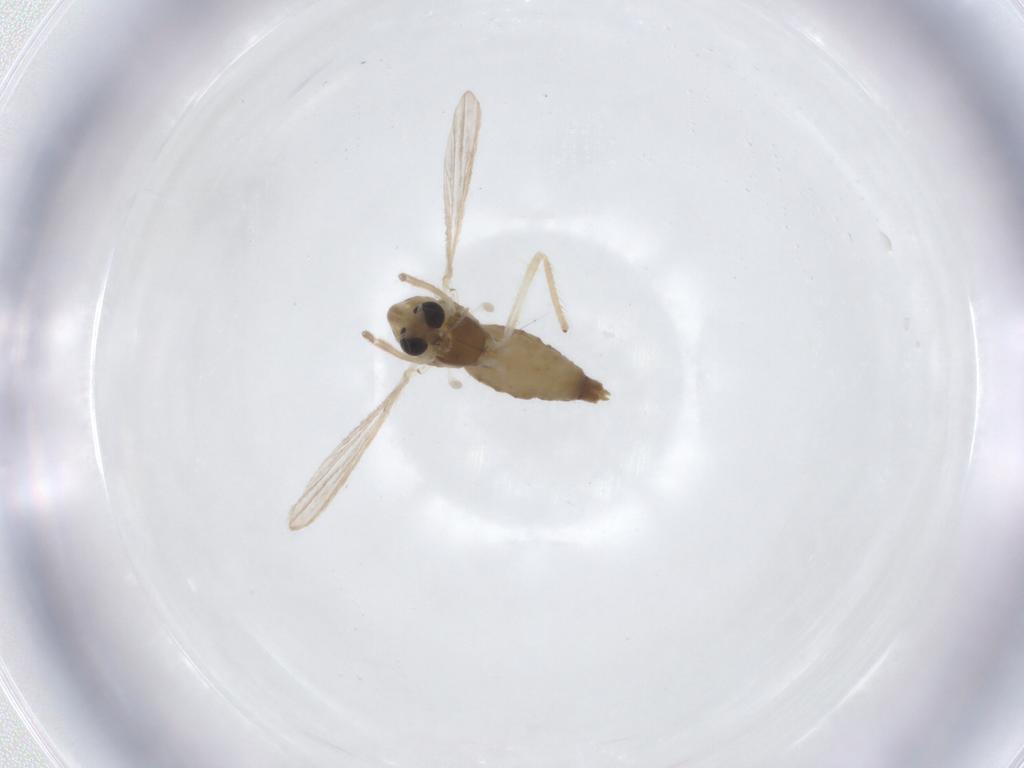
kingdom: Animalia
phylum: Arthropoda
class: Insecta
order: Diptera
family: Chironomidae
